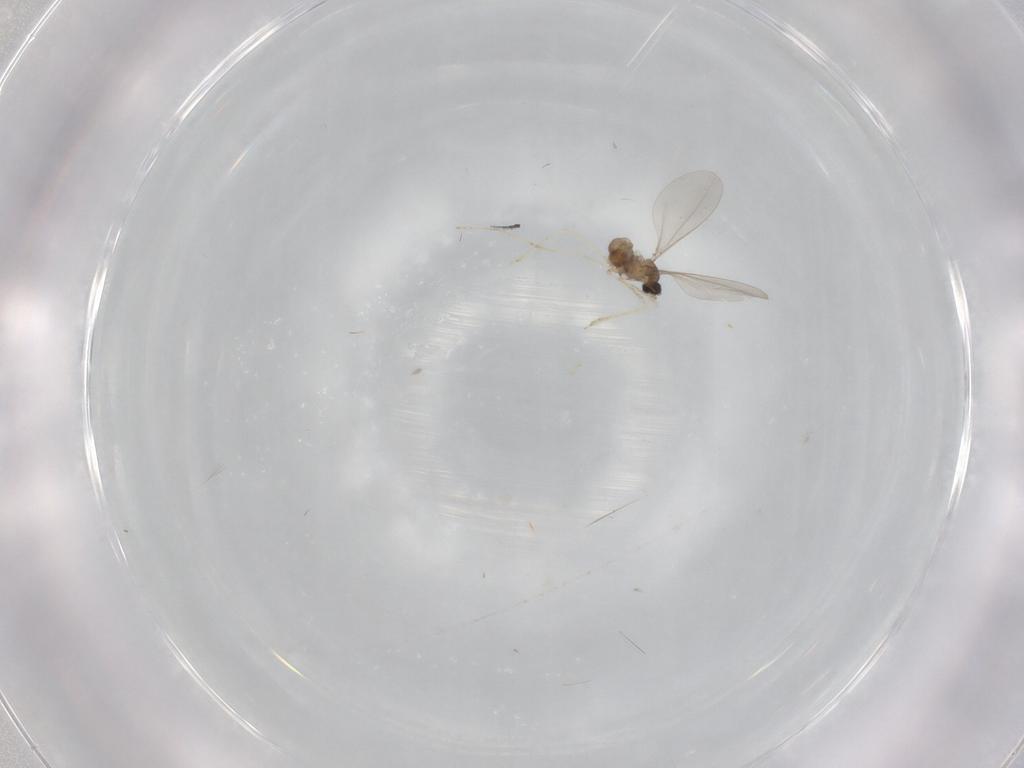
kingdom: Animalia
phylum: Arthropoda
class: Insecta
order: Diptera
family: Cecidomyiidae
